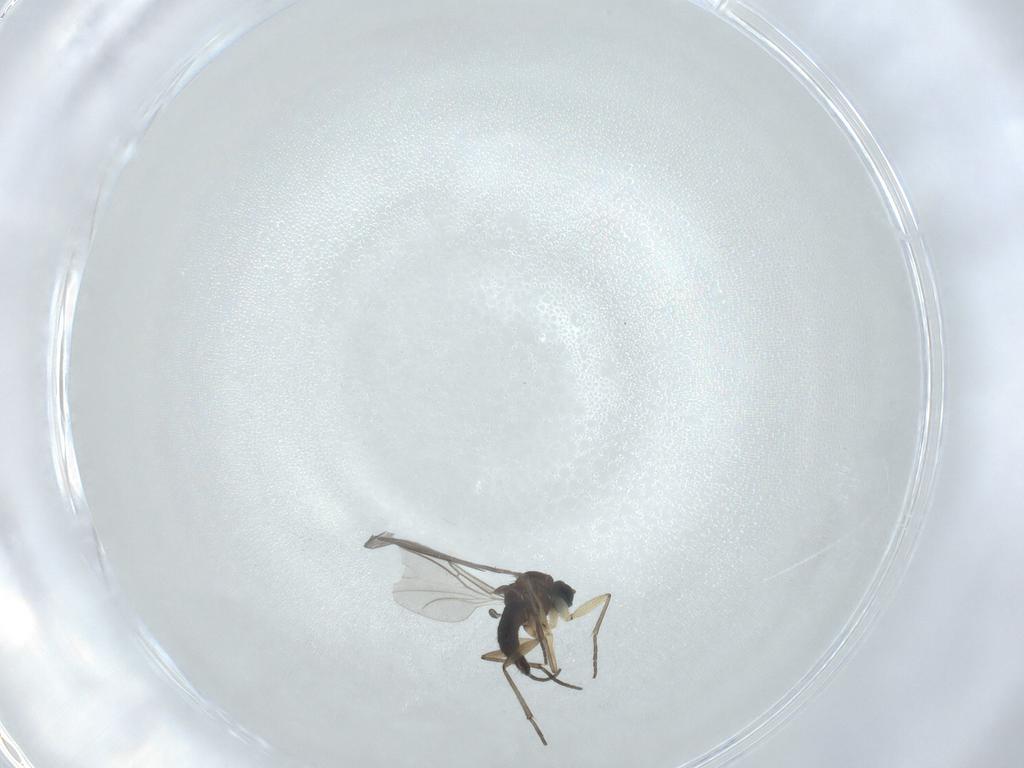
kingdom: Animalia
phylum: Arthropoda
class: Insecta
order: Diptera
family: Sciaridae
